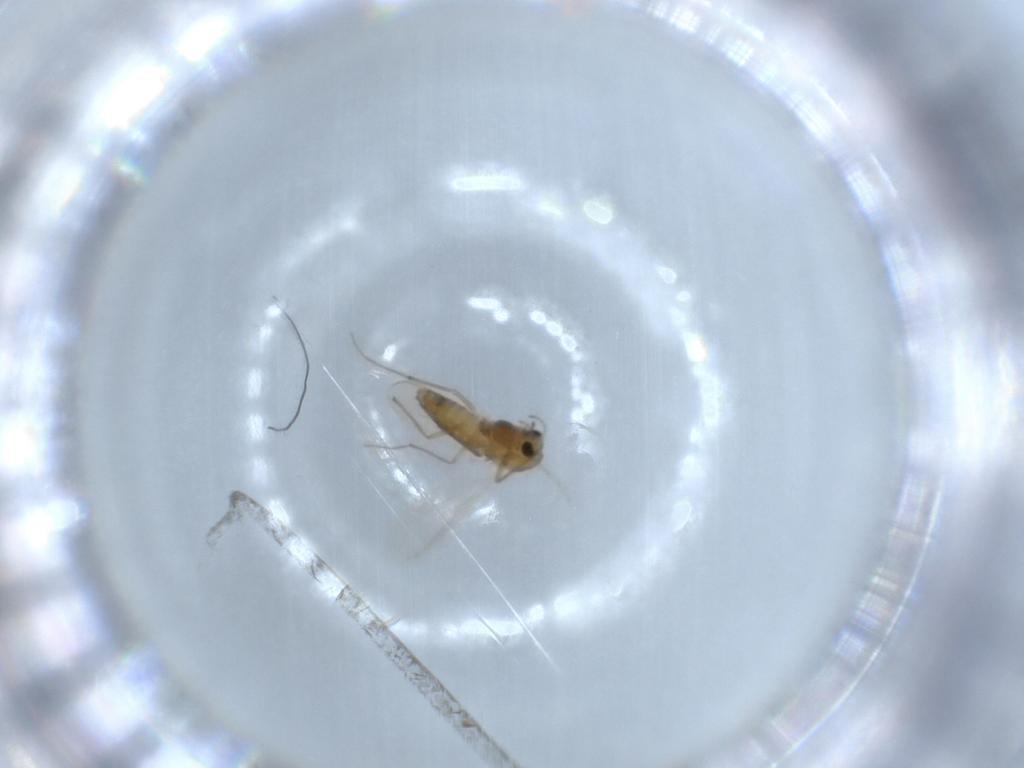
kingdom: Animalia
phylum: Arthropoda
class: Insecta
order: Diptera
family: Chironomidae
